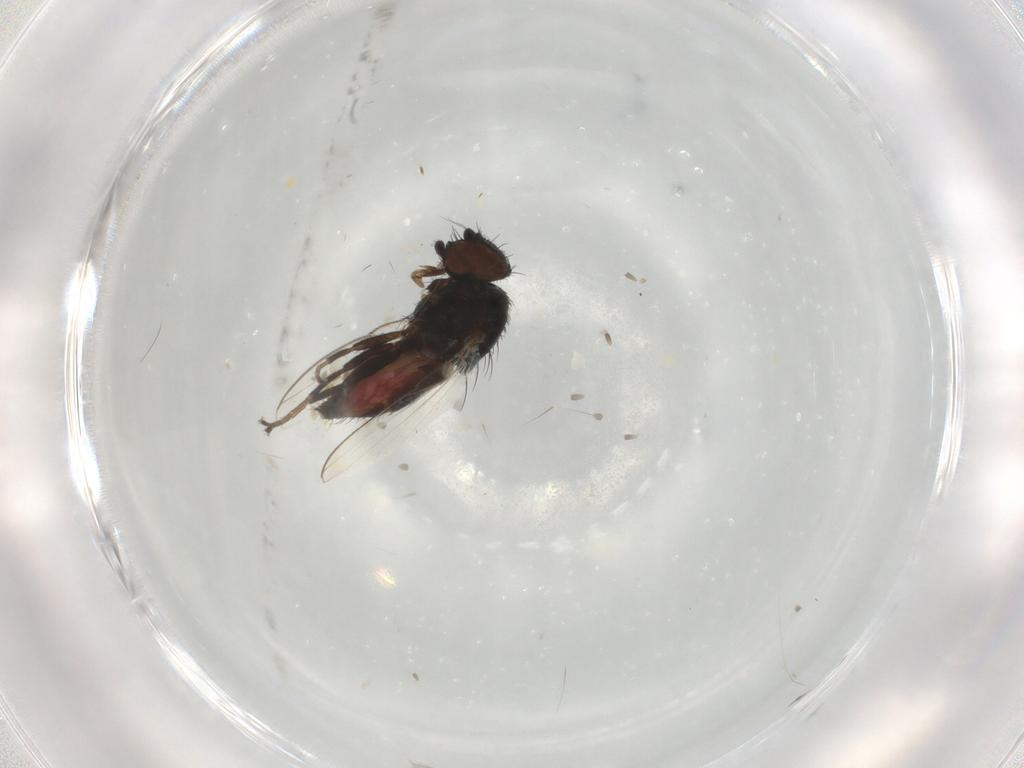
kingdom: Animalia
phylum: Arthropoda
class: Insecta
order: Diptera
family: Milichiidae
